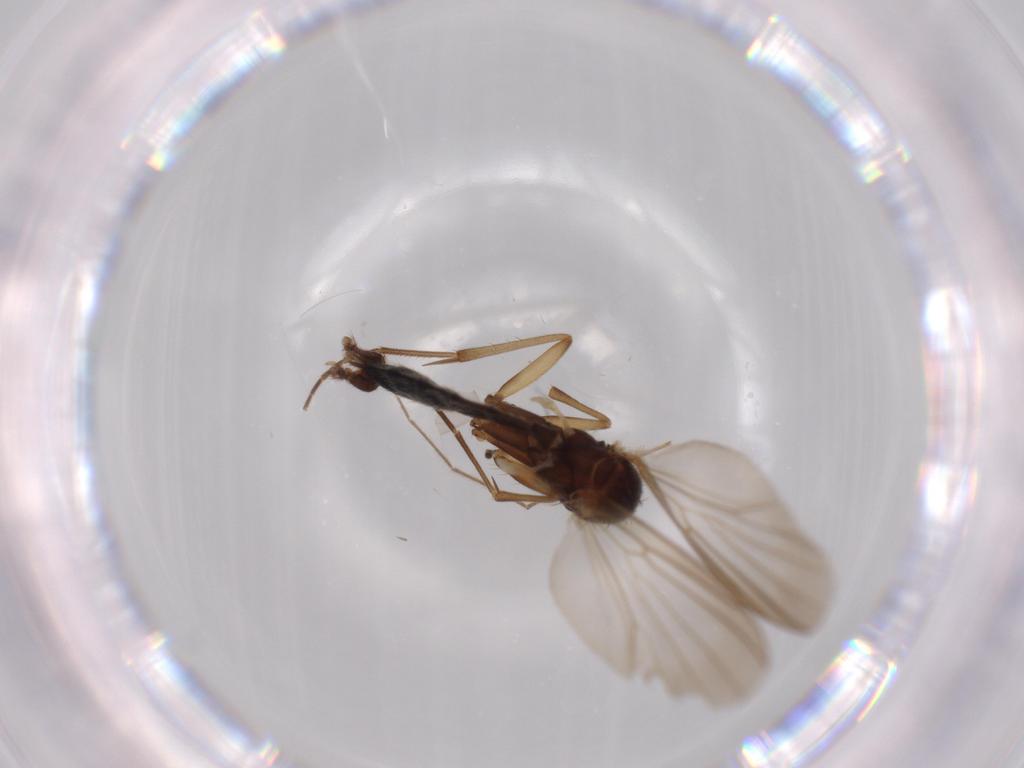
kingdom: Animalia
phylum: Arthropoda
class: Insecta
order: Diptera
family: Mycetophilidae
